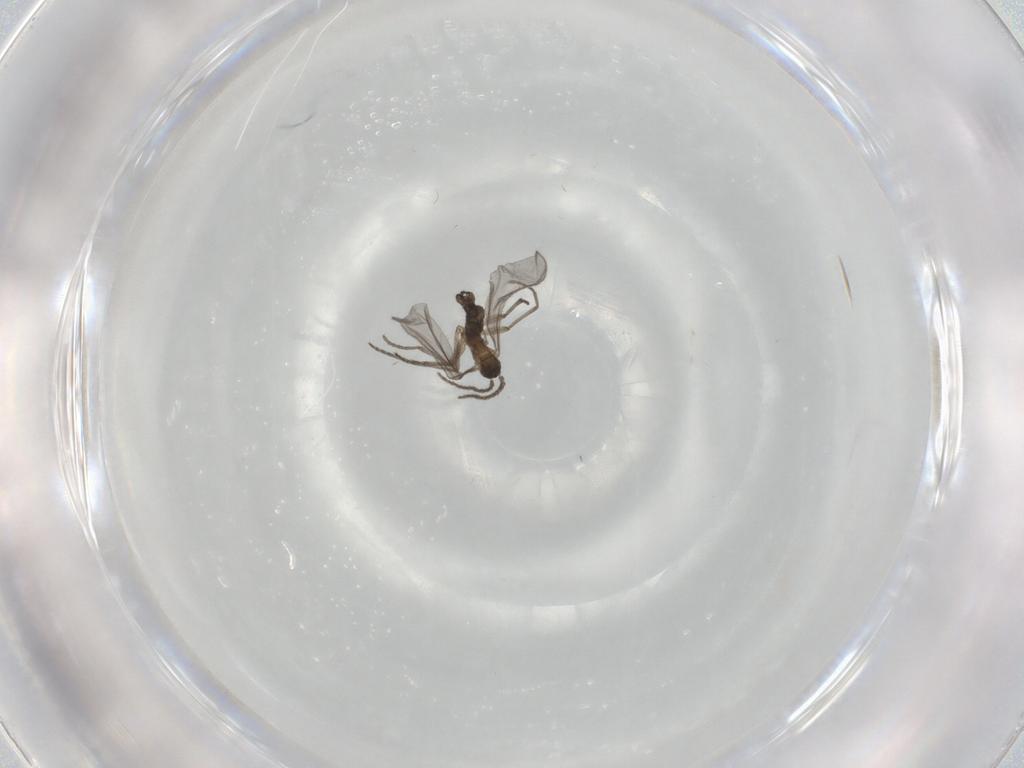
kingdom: Animalia
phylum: Arthropoda
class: Insecta
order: Diptera
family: Sciaridae
